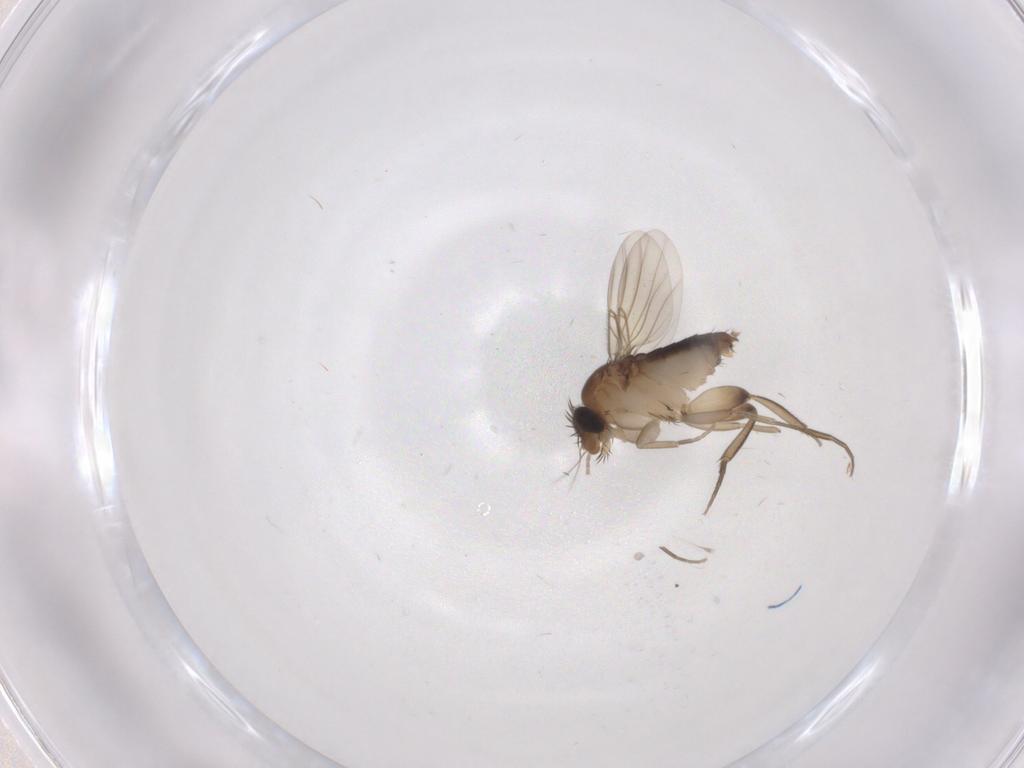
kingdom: Animalia
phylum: Arthropoda
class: Insecta
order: Diptera
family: Phoridae
